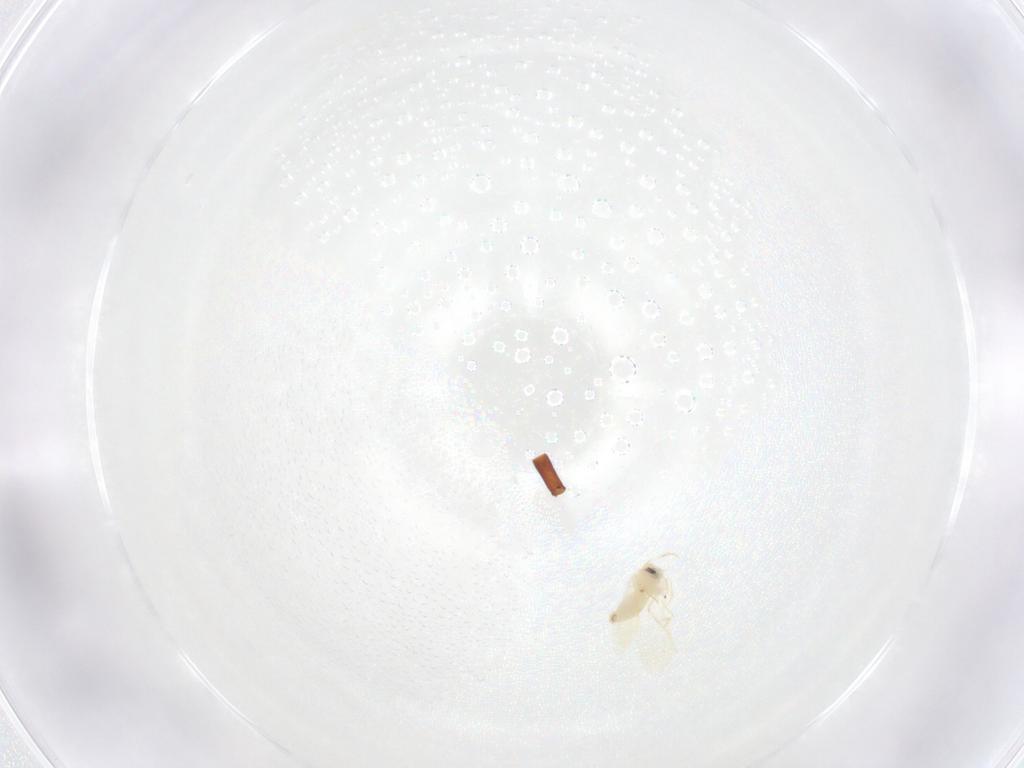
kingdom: Animalia
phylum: Arthropoda
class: Insecta
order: Hemiptera
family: Aleyrodidae
